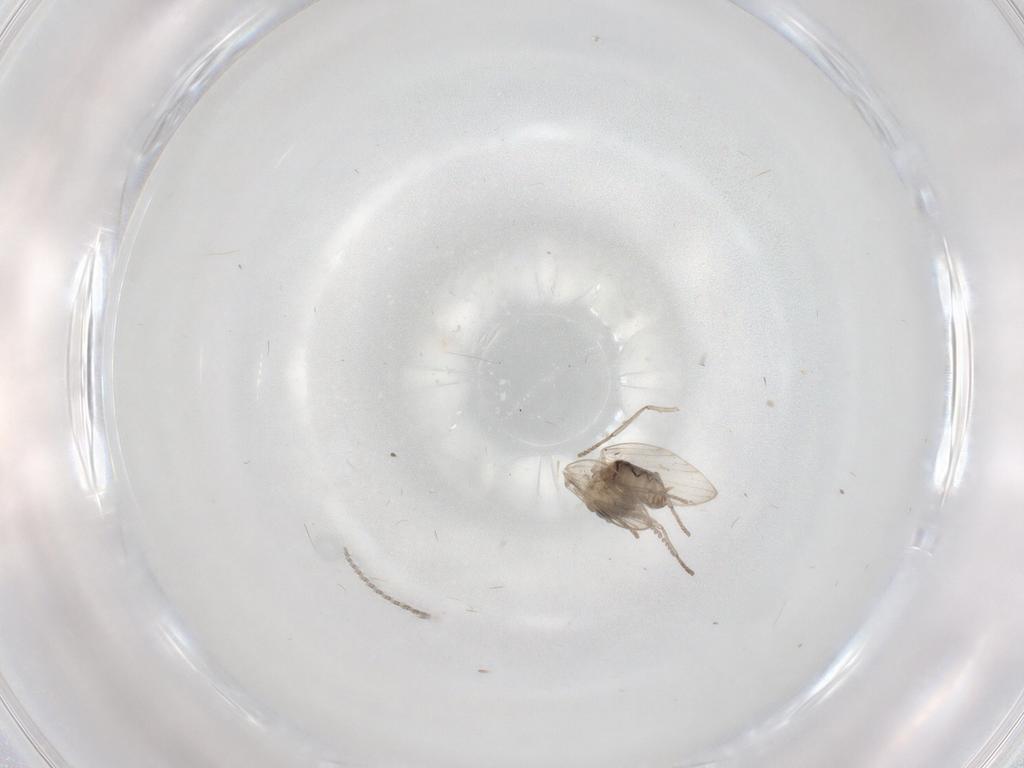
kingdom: Animalia
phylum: Arthropoda
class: Insecta
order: Diptera
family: Psychodidae
